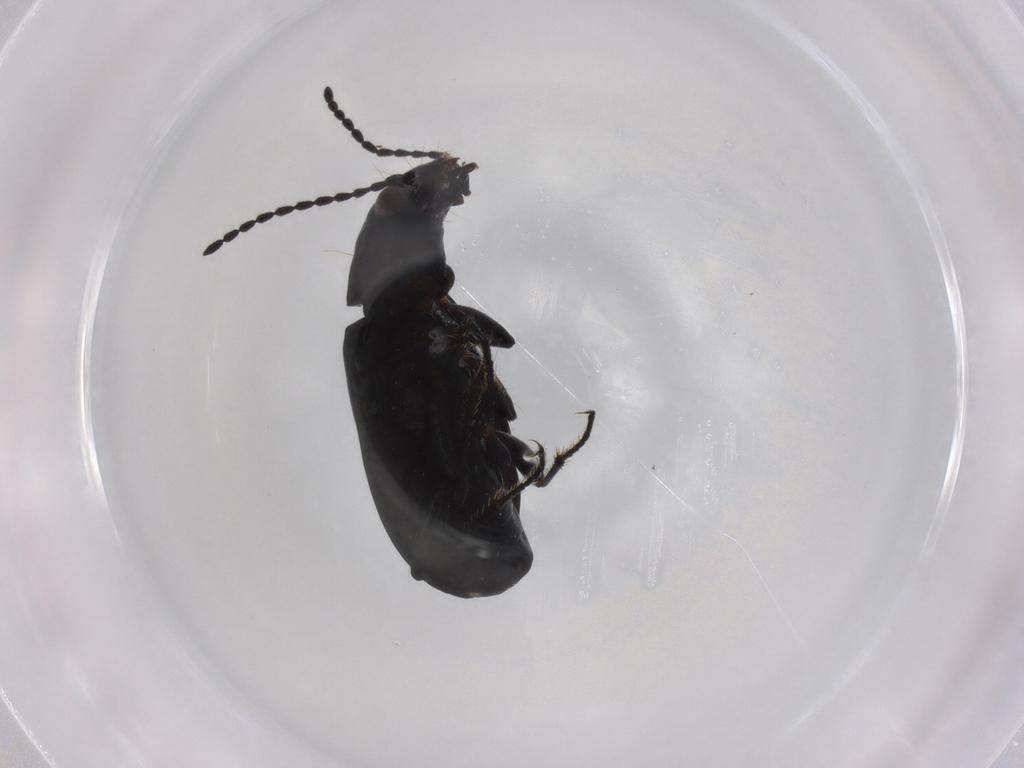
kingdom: Animalia
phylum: Arthropoda
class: Insecta
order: Coleoptera
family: Carabidae
